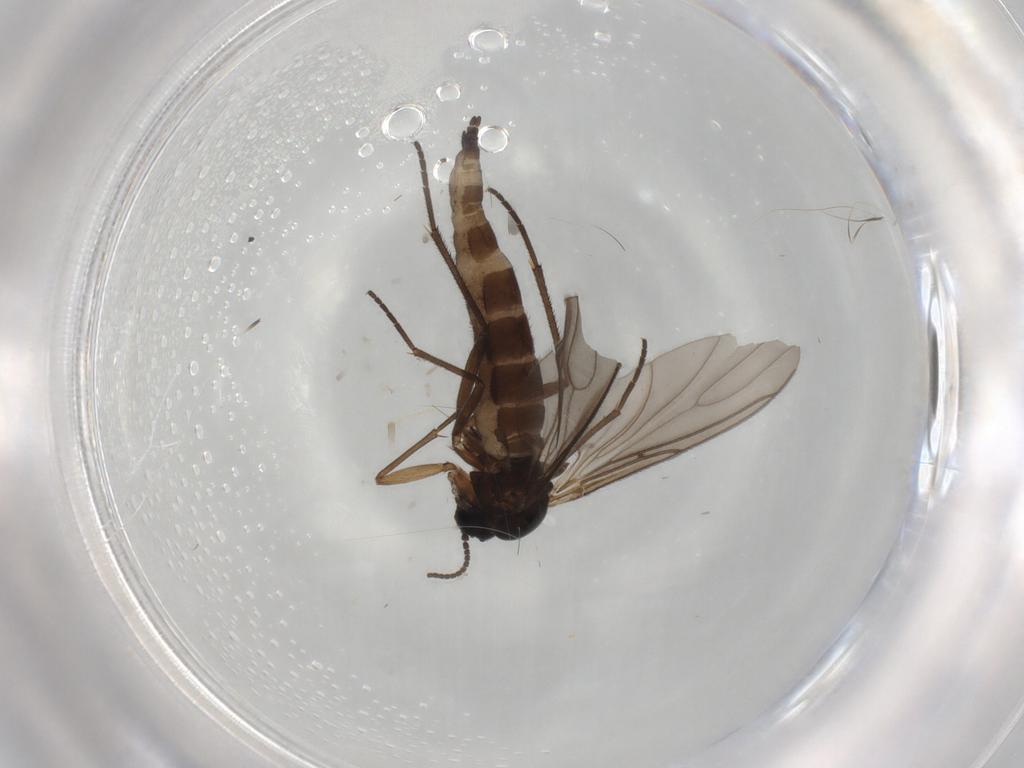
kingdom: Animalia
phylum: Arthropoda
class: Insecta
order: Diptera
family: Sciaridae
